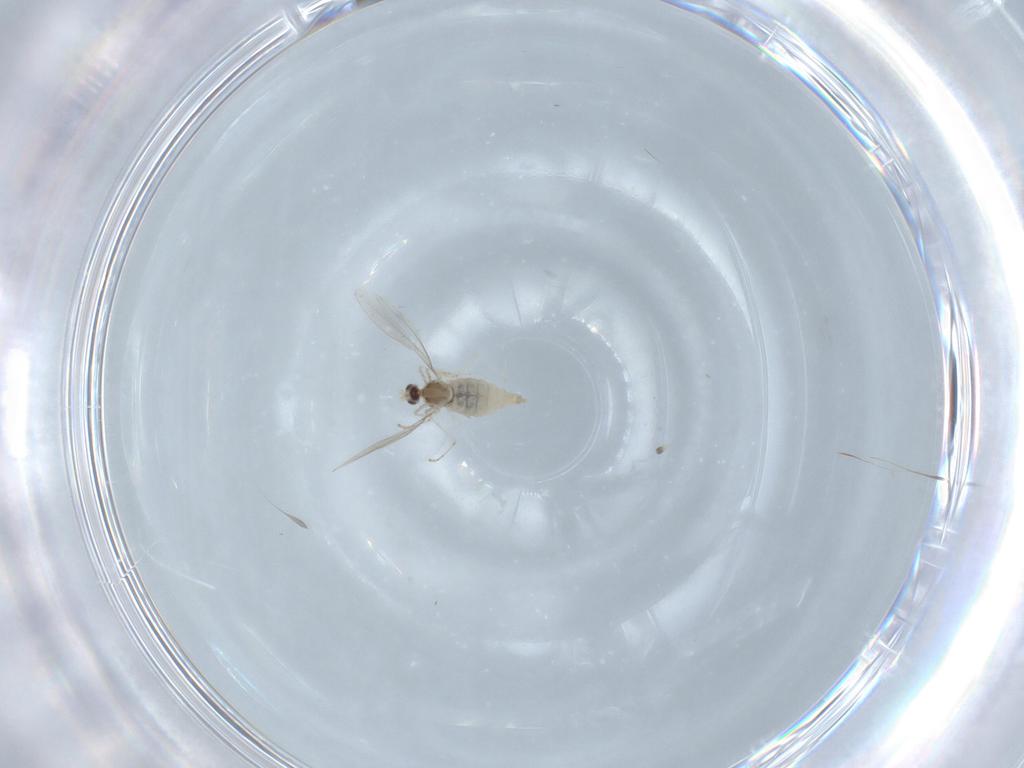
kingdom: Animalia
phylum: Arthropoda
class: Insecta
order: Diptera
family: Cecidomyiidae
